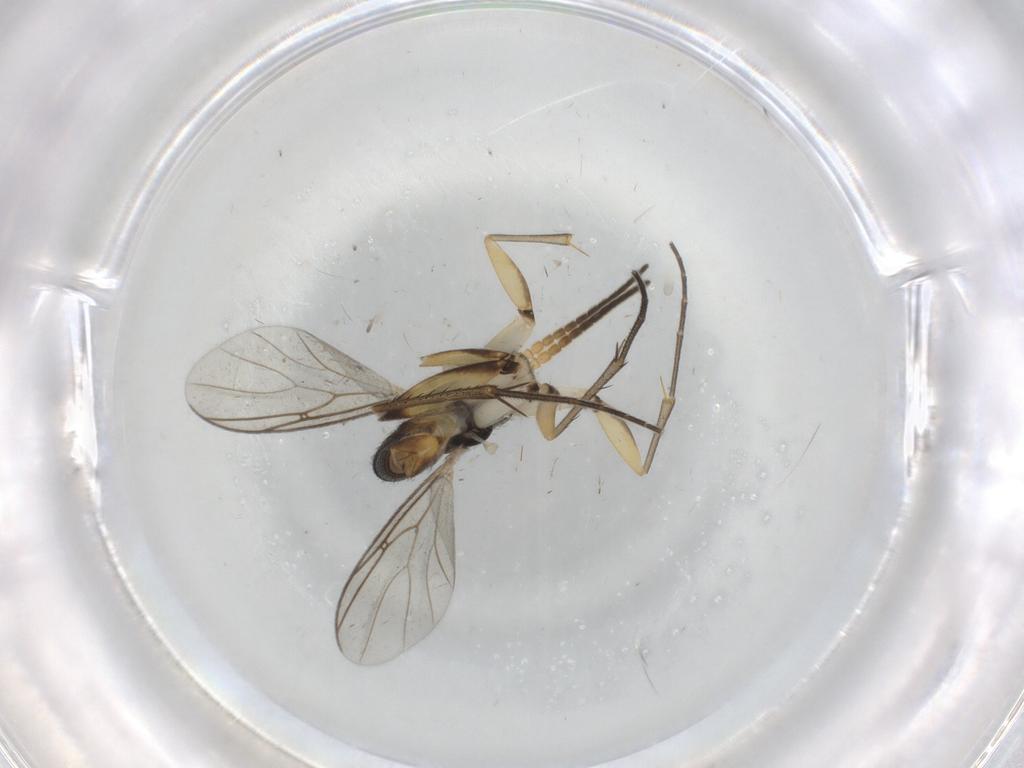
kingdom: Animalia
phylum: Arthropoda
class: Insecta
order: Diptera
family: Mycetophilidae
